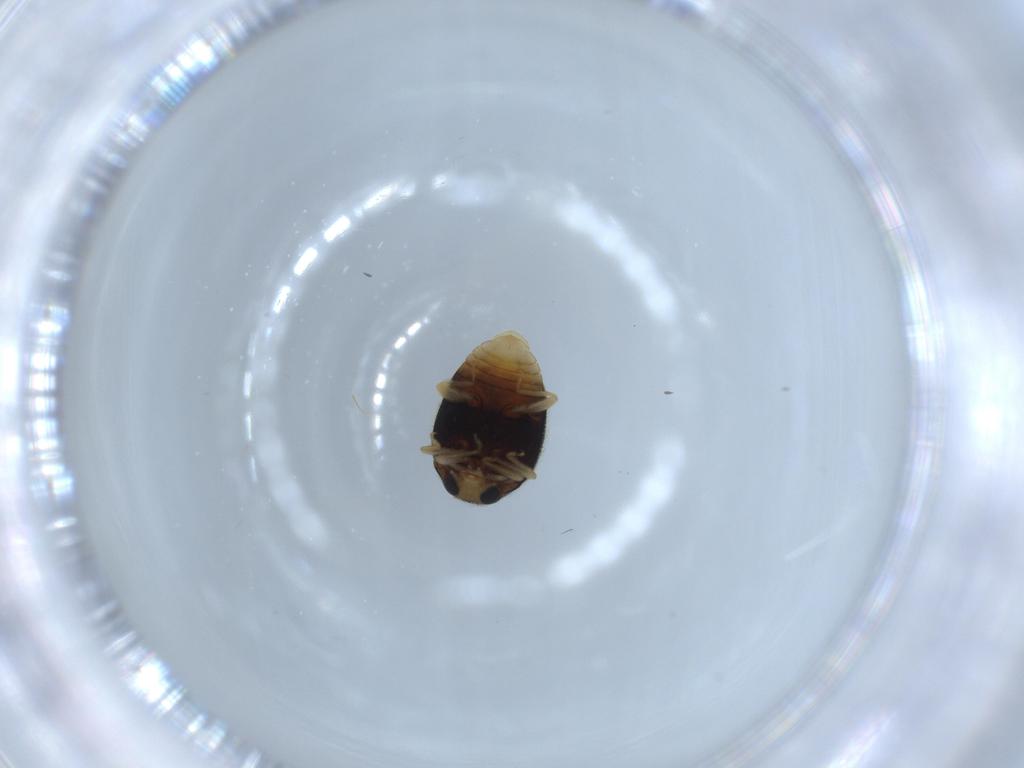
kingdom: Animalia
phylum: Arthropoda
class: Insecta
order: Coleoptera
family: Coccinellidae
